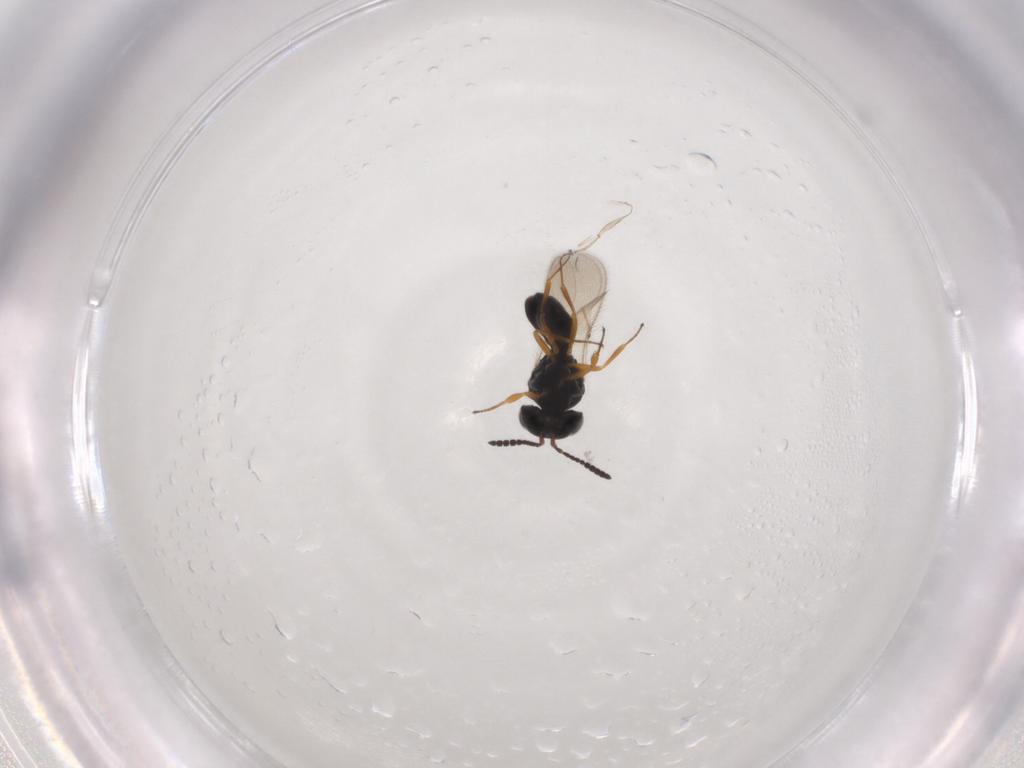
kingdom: Animalia
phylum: Arthropoda
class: Insecta
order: Hymenoptera
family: Scelionidae
